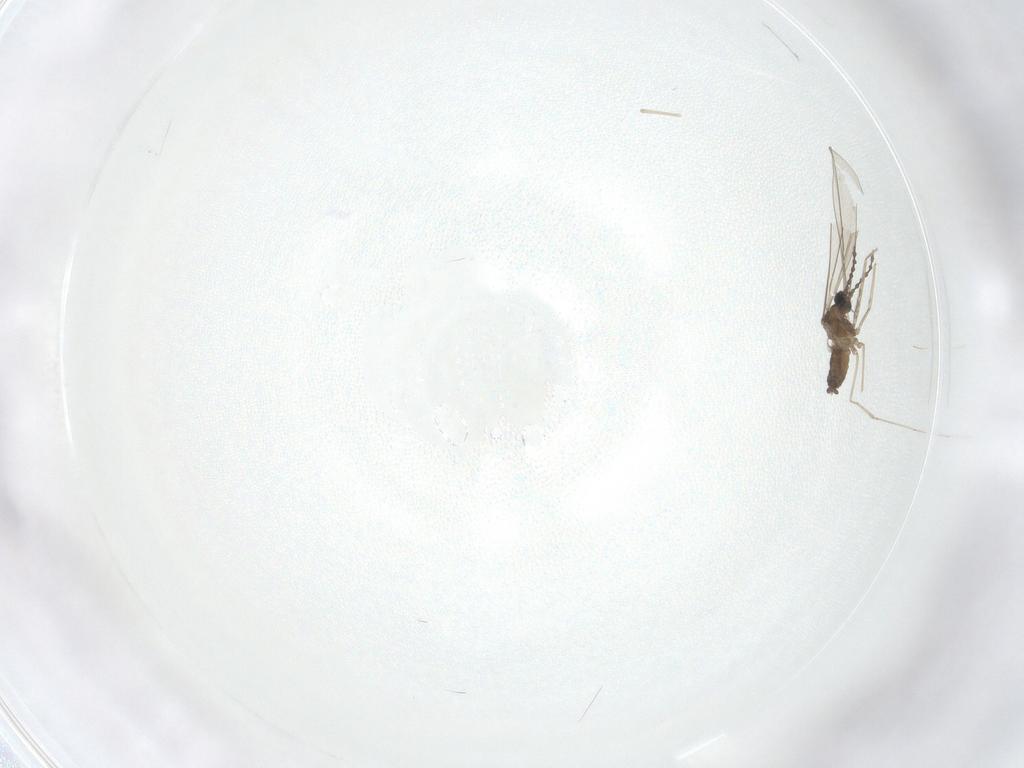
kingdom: Animalia
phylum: Arthropoda
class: Insecta
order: Diptera
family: Cecidomyiidae
